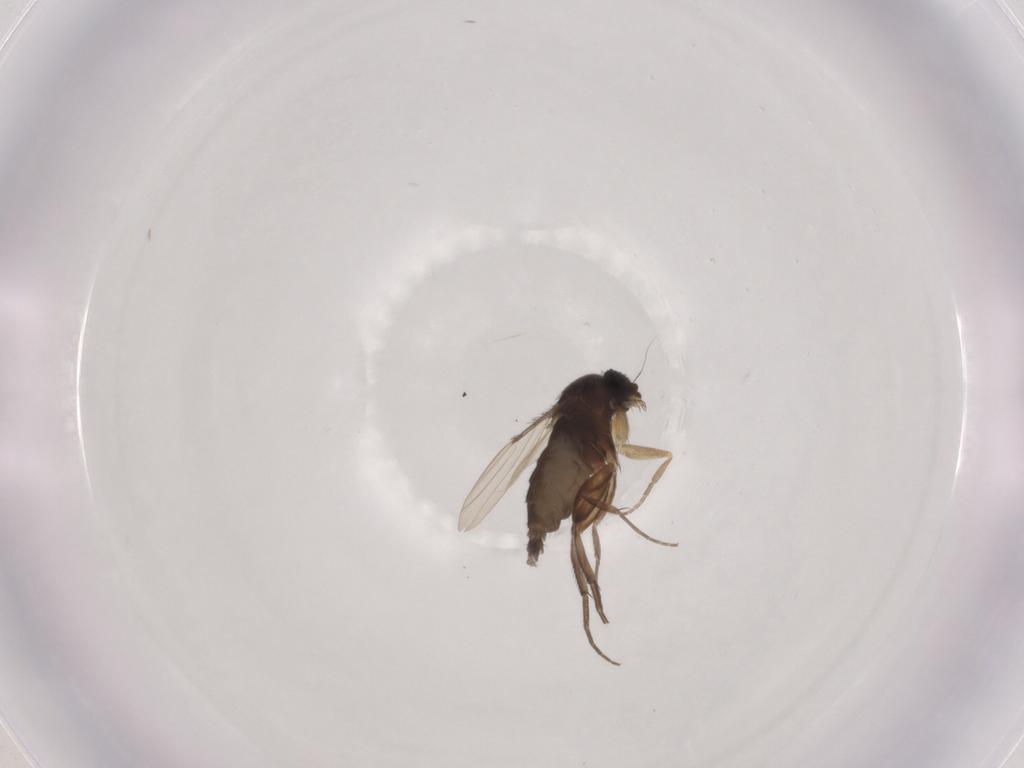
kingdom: Animalia
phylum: Arthropoda
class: Insecta
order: Diptera
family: Phoridae
